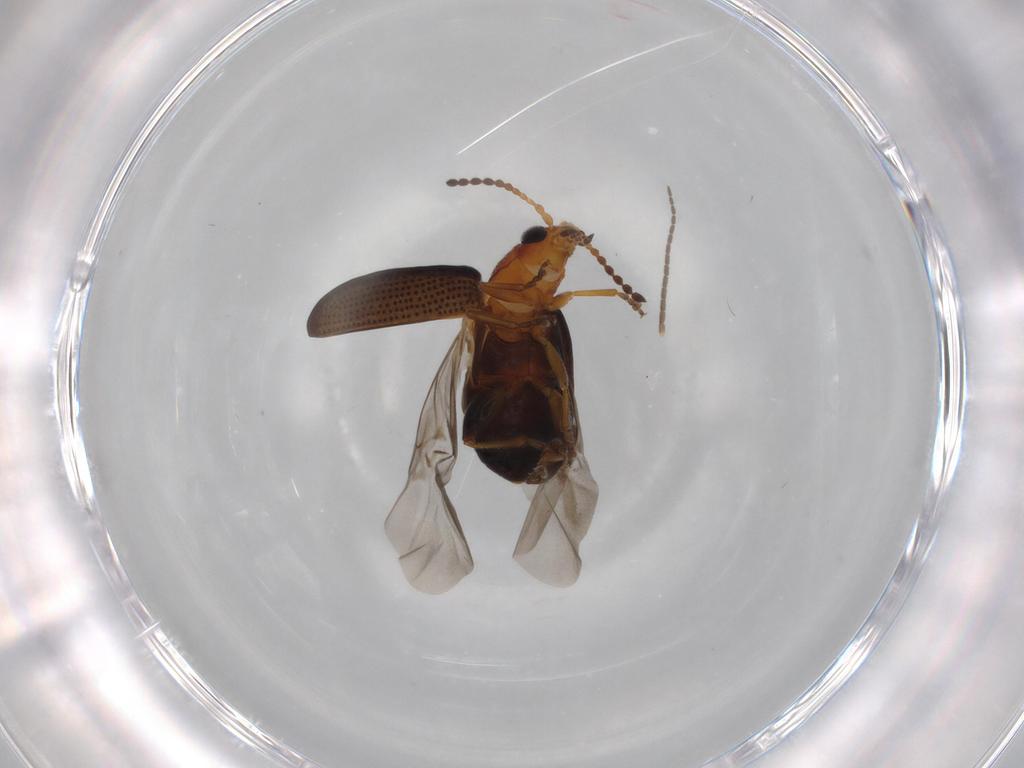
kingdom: Animalia
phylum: Arthropoda
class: Insecta
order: Coleoptera
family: Chrysomelidae
